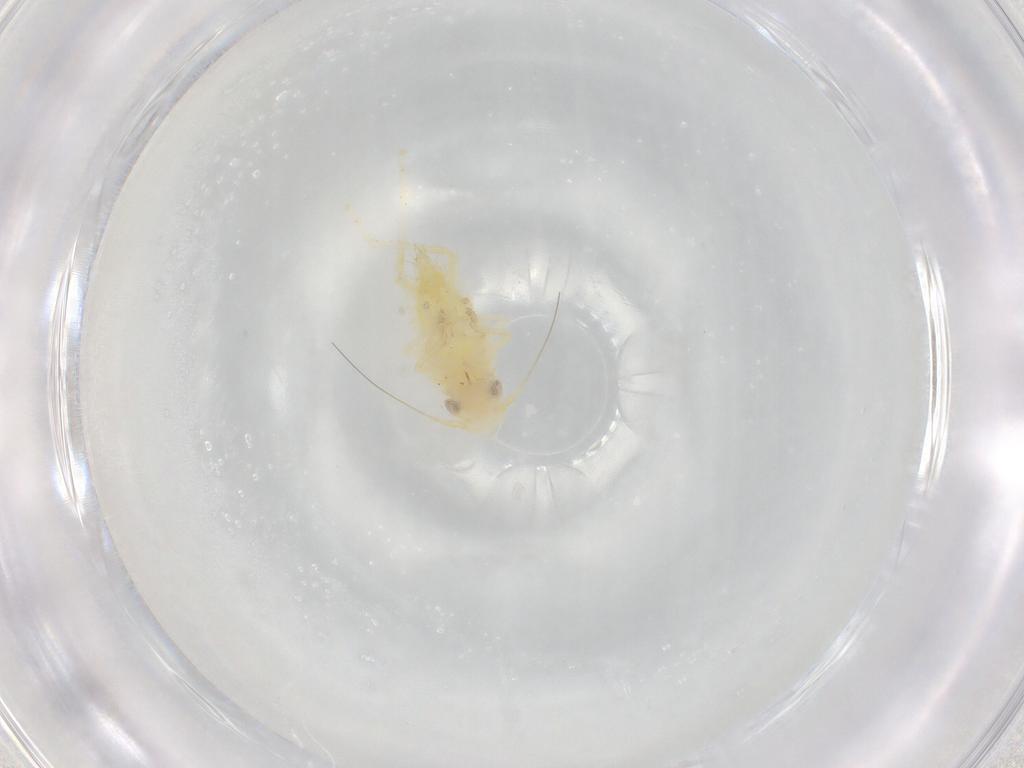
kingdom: Animalia
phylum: Arthropoda
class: Insecta
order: Hemiptera
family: Cicadellidae
